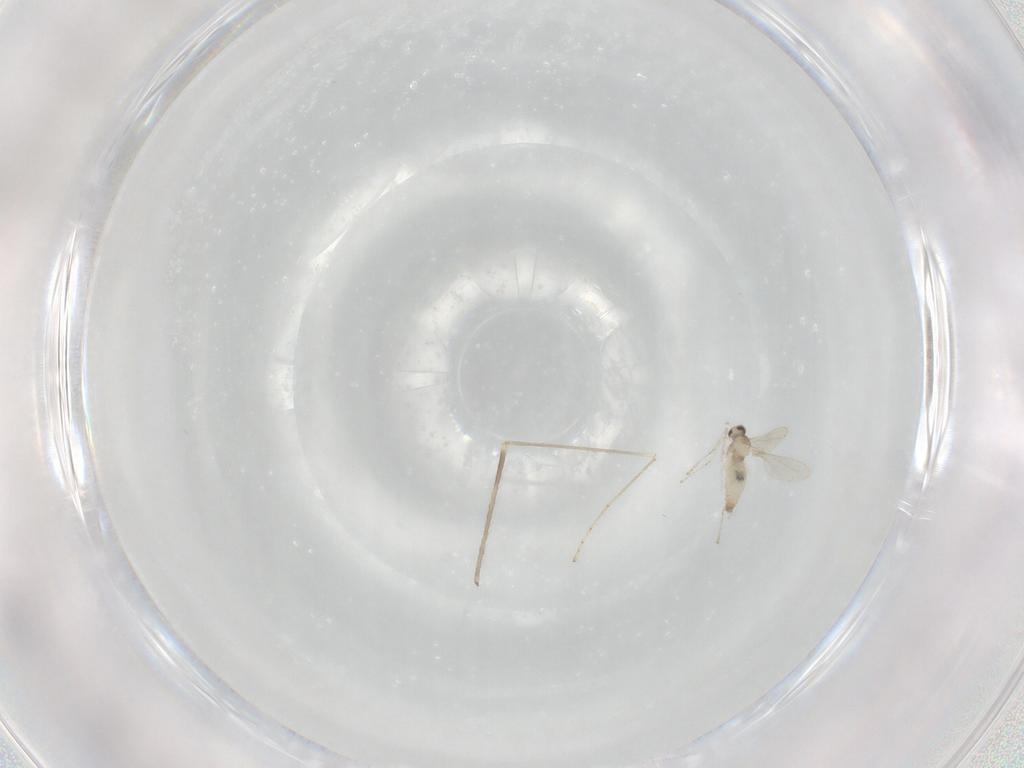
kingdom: Animalia
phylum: Arthropoda
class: Insecta
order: Diptera
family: Cecidomyiidae
